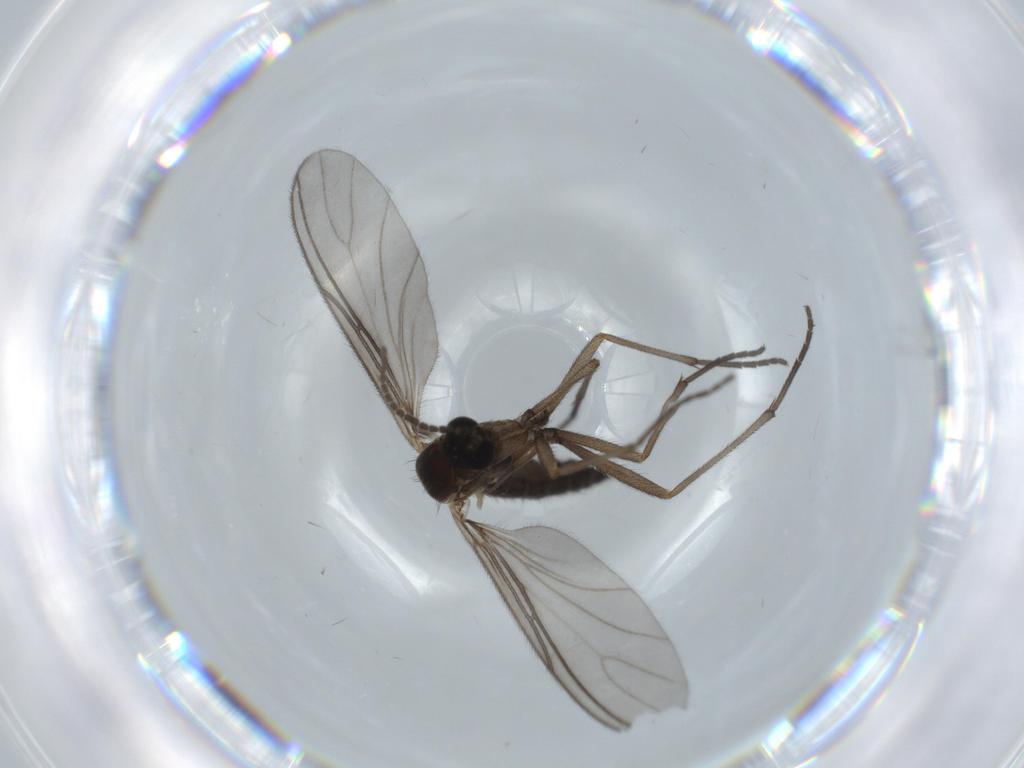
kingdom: Animalia
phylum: Arthropoda
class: Insecta
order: Diptera
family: Sciaridae
